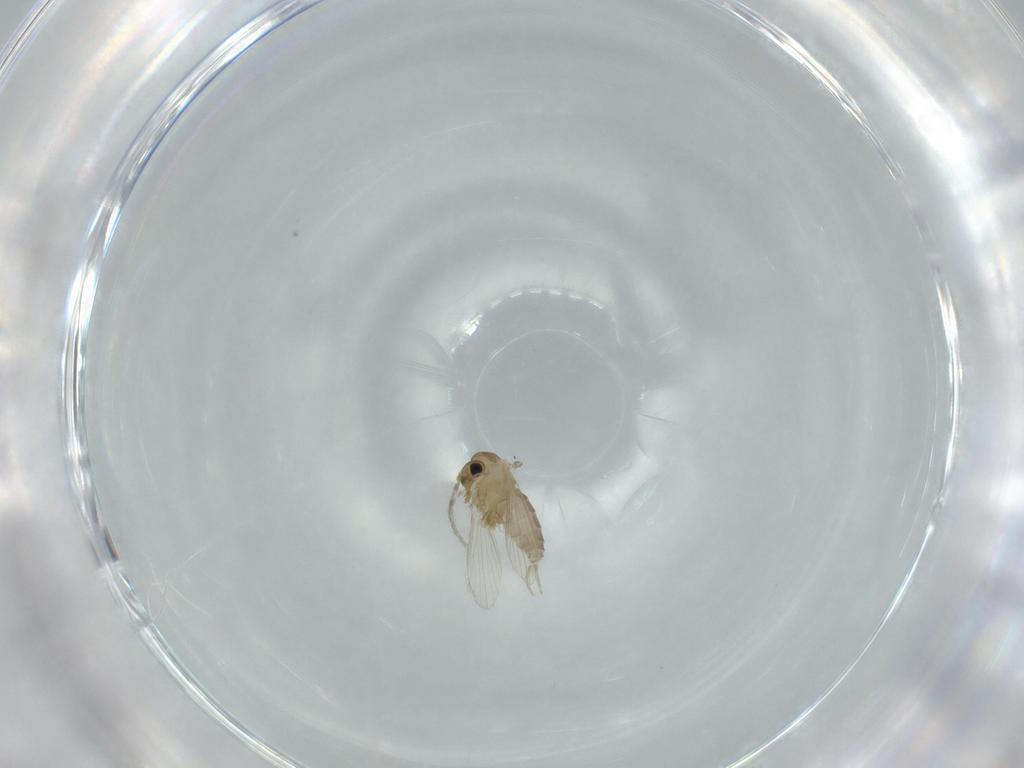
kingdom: Animalia
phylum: Arthropoda
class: Insecta
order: Diptera
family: Psychodidae
